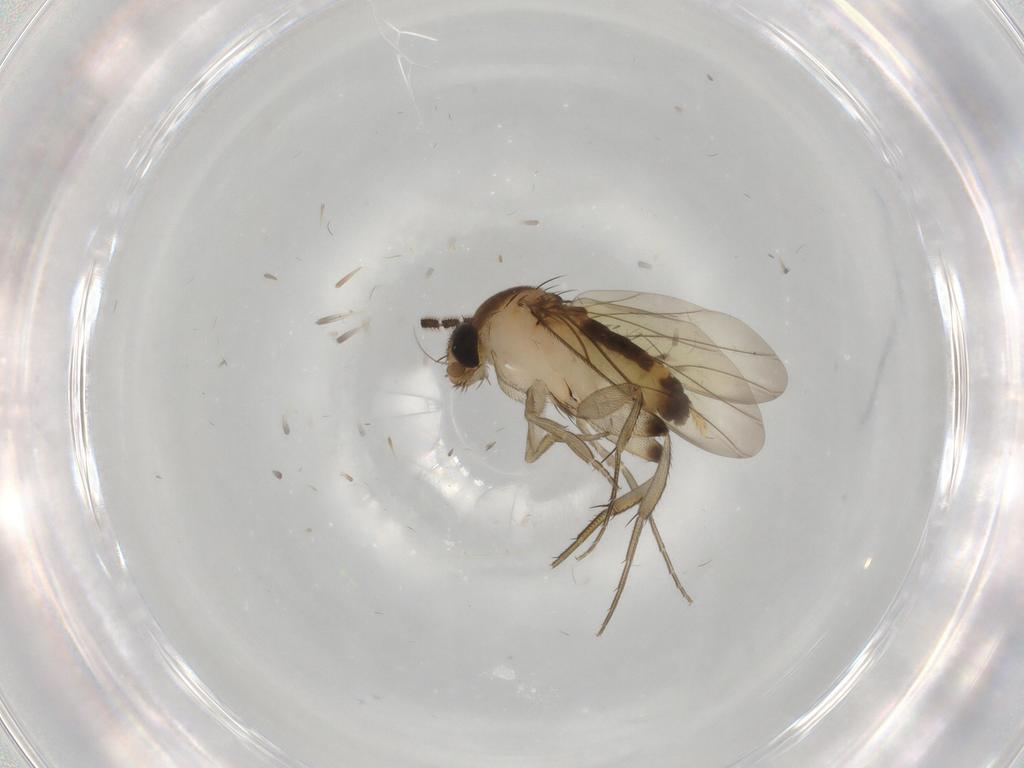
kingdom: Animalia
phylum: Arthropoda
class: Insecta
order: Diptera
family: Phoridae
